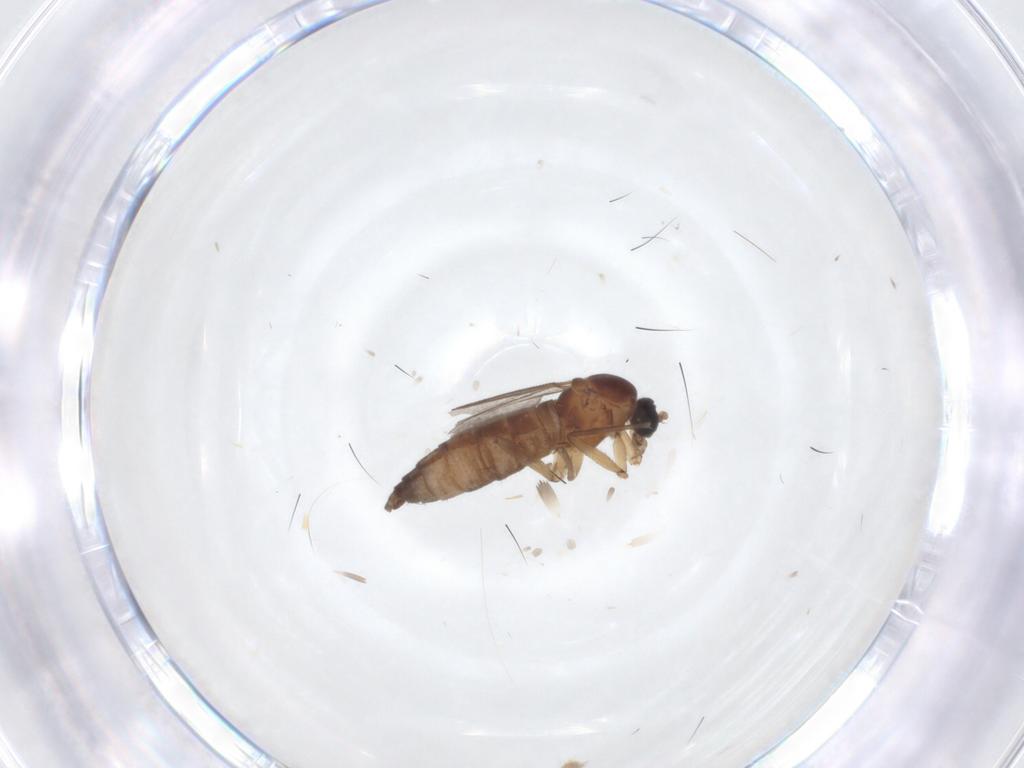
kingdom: Animalia
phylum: Arthropoda
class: Insecta
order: Diptera
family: Sciaridae
